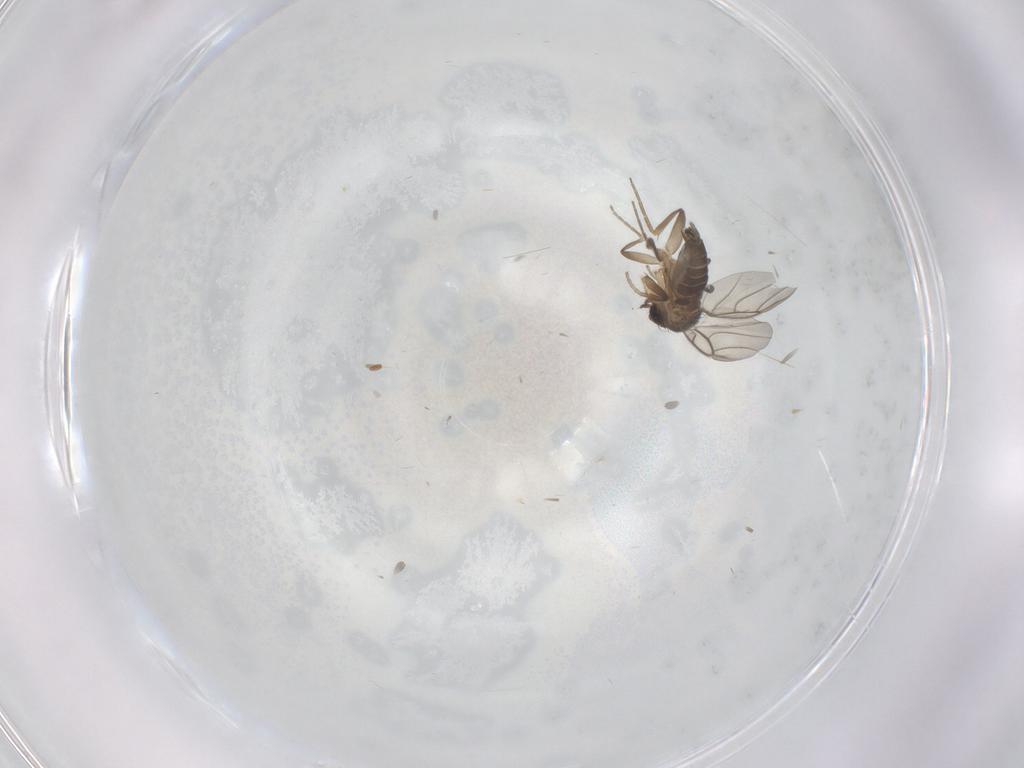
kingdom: Animalia
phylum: Arthropoda
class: Insecta
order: Diptera
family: Phoridae
